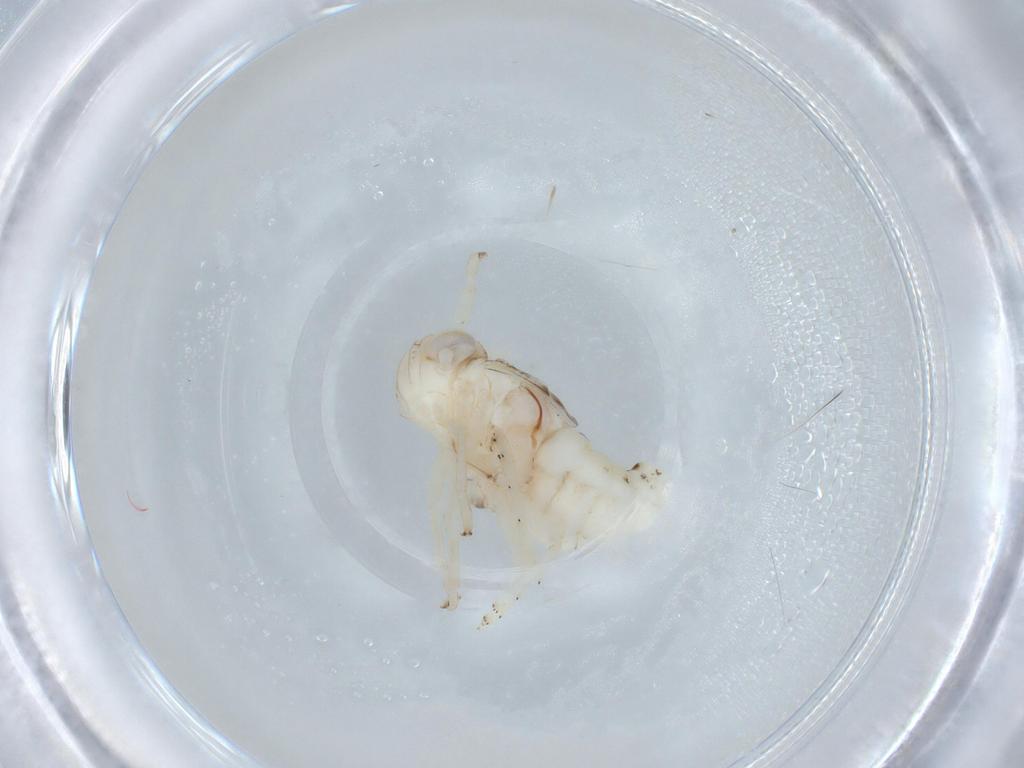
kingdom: Animalia
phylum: Arthropoda
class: Insecta
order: Hemiptera
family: Nogodinidae
